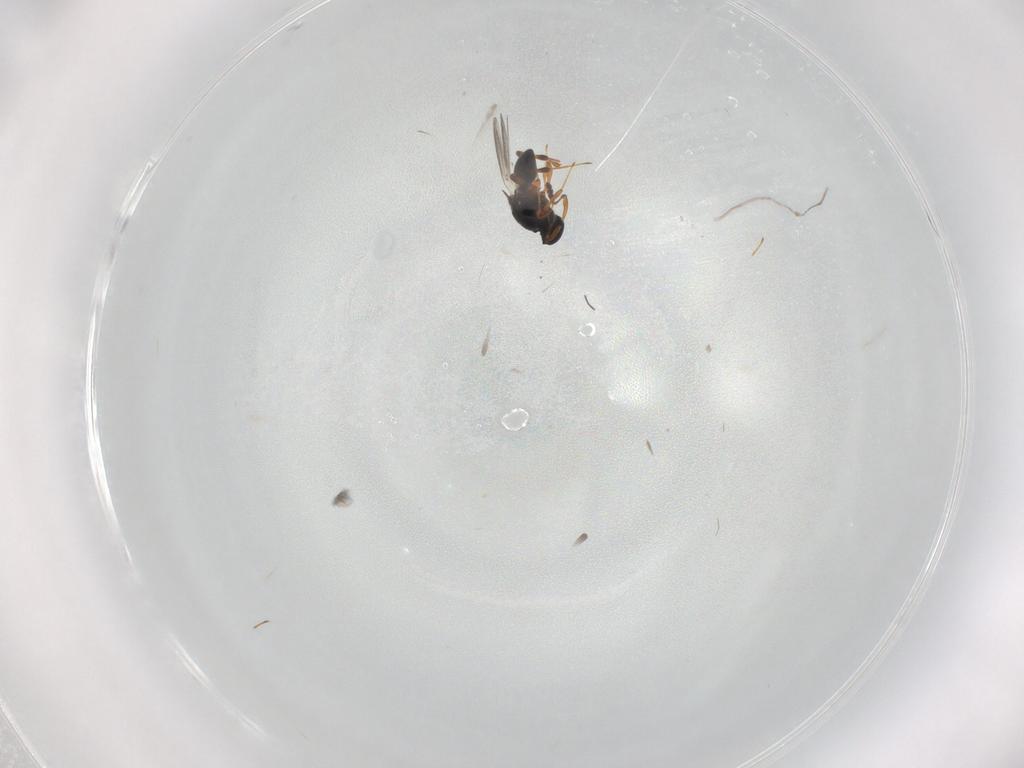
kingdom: Animalia
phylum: Arthropoda
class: Insecta
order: Hymenoptera
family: Platygastridae
